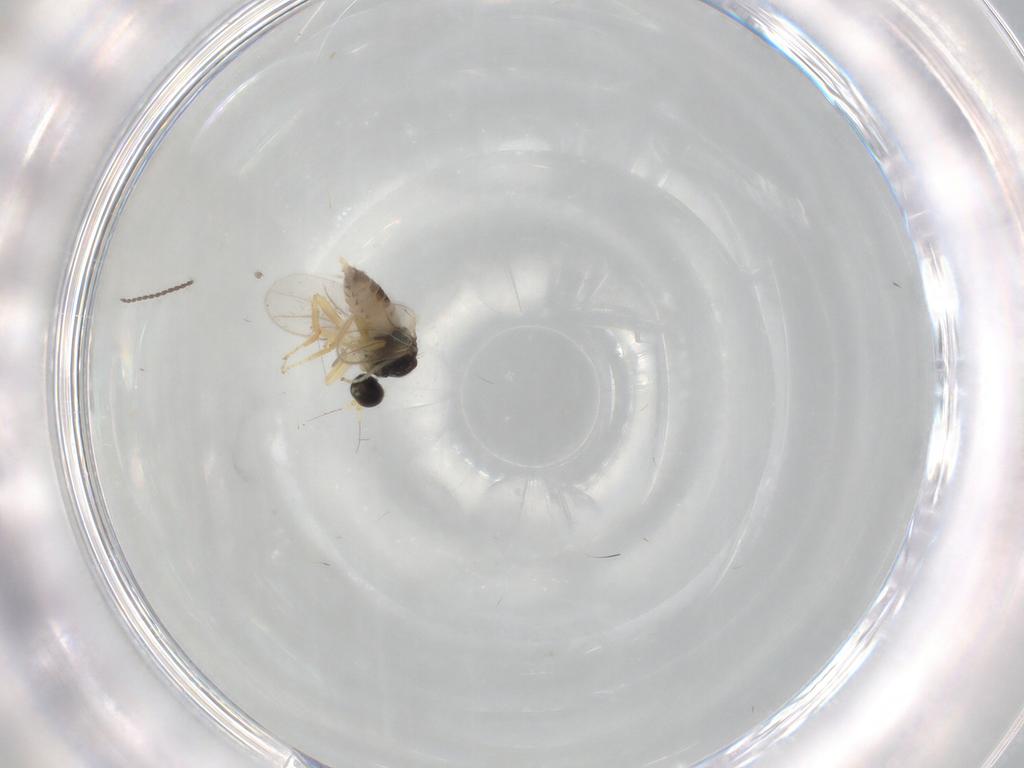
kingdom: Animalia
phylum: Arthropoda
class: Insecta
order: Diptera
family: Hybotidae
